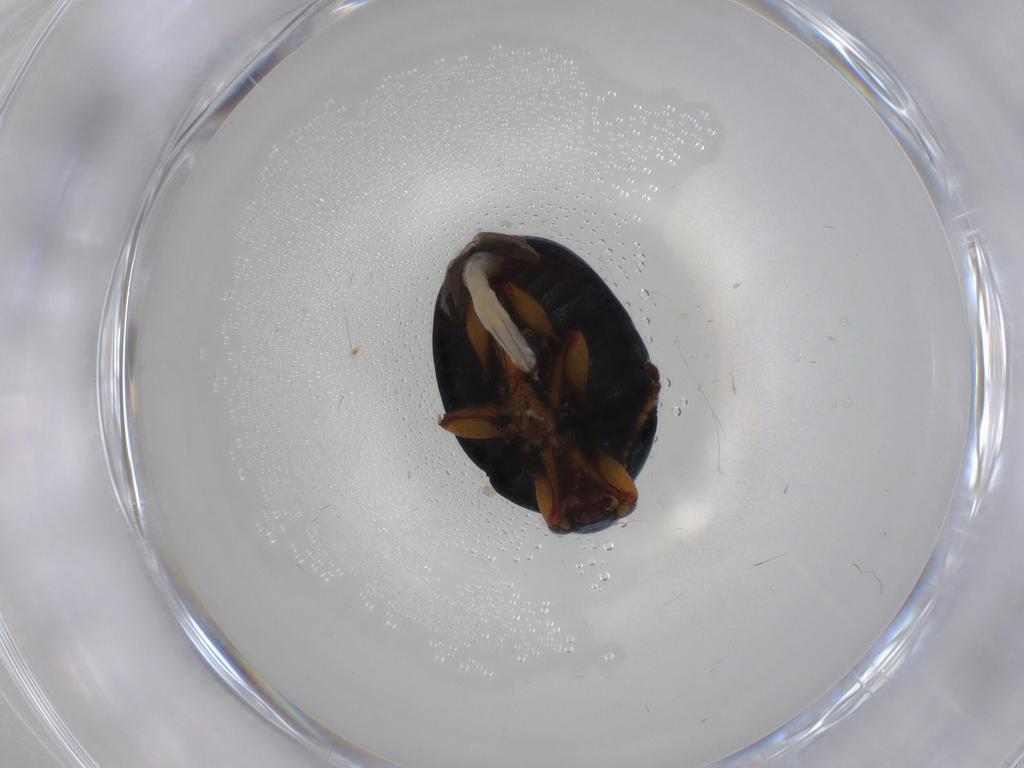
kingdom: Animalia
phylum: Arthropoda
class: Insecta
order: Coleoptera
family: Chrysomelidae
